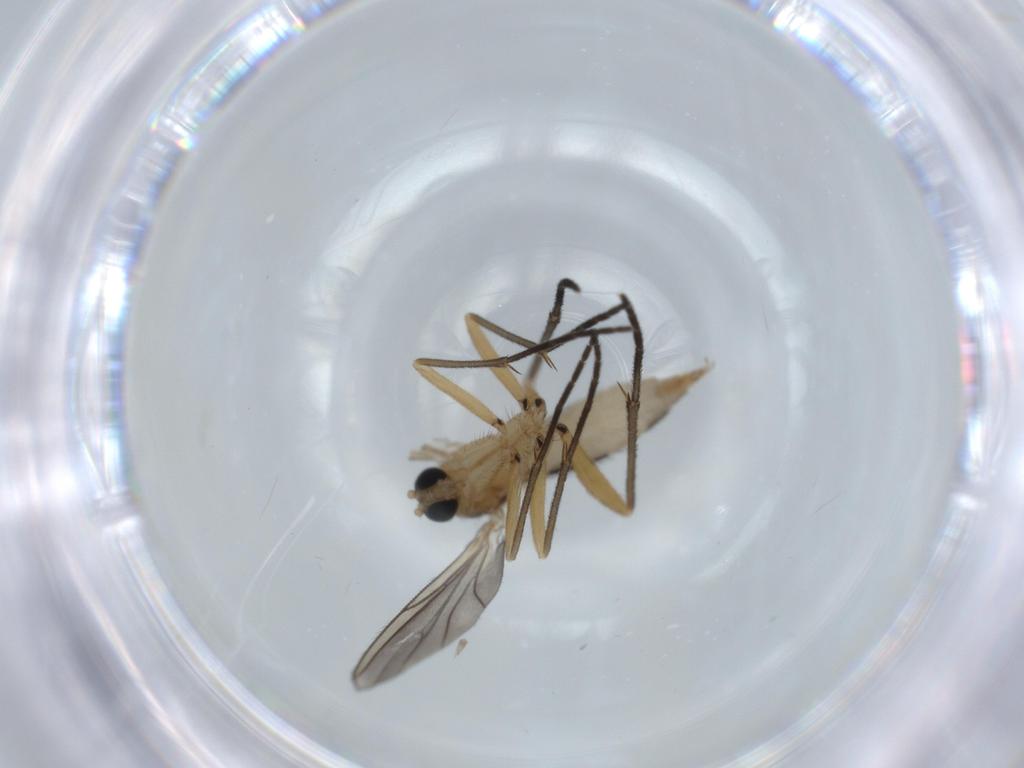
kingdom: Animalia
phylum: Arthropoda
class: Insecta
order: Diptera
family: Sciaridae
